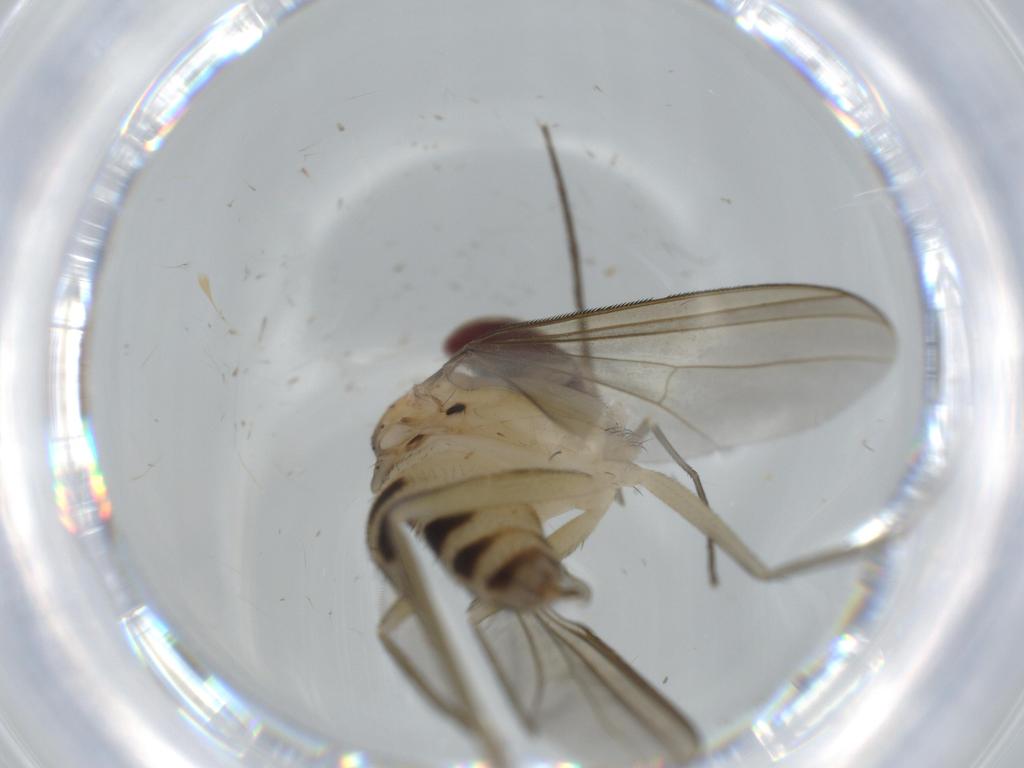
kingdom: Animalia
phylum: Arthropoda
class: Insecta
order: Diptera
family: Dolichopodidae
